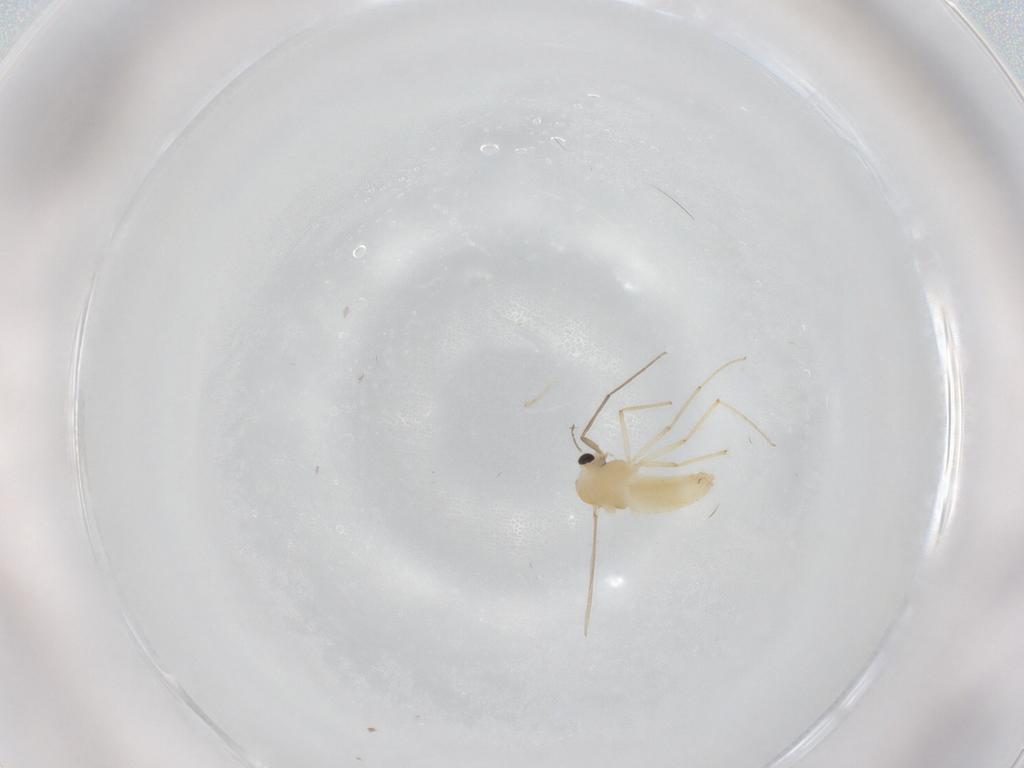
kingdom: Animalia
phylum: Arthropoda
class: Insecta
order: Diptera
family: Chironomidae
